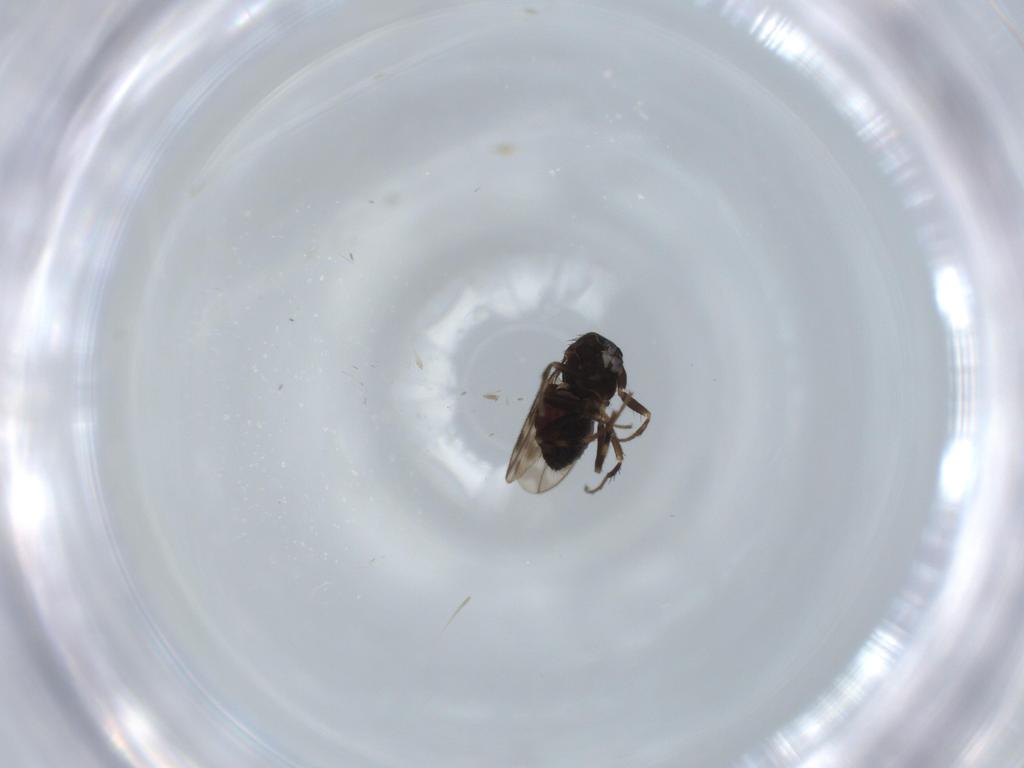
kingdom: Animalia
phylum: Arthropoda
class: Insecta
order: Diptera
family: Sphaeroceridae
